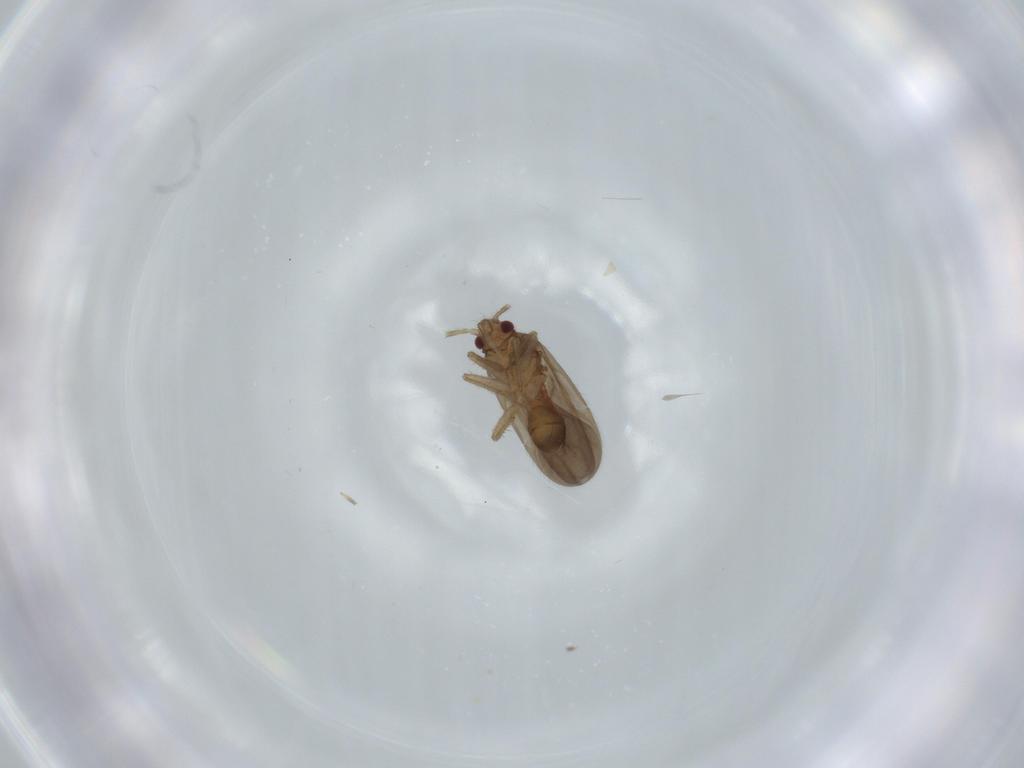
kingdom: Animalia
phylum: Arthropoda
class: Insecta
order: Hemiptera
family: Ceratocombidae
